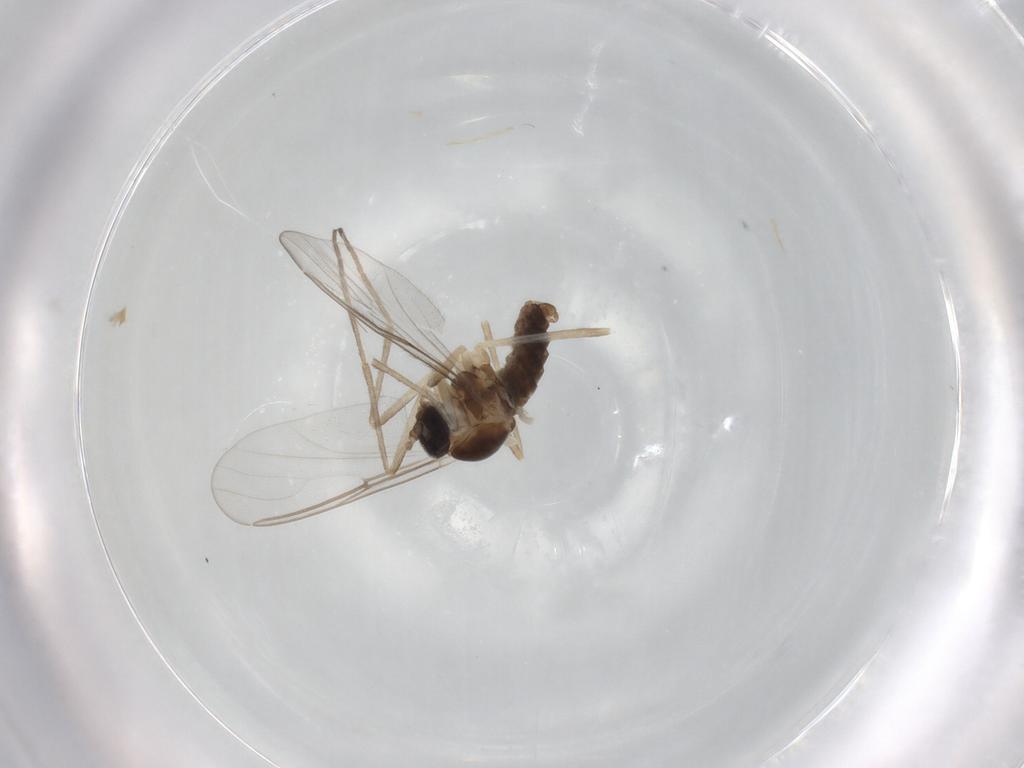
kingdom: Animalia
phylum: Arthropoda
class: Insecta
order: Diptera
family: Cecidomyiidae
